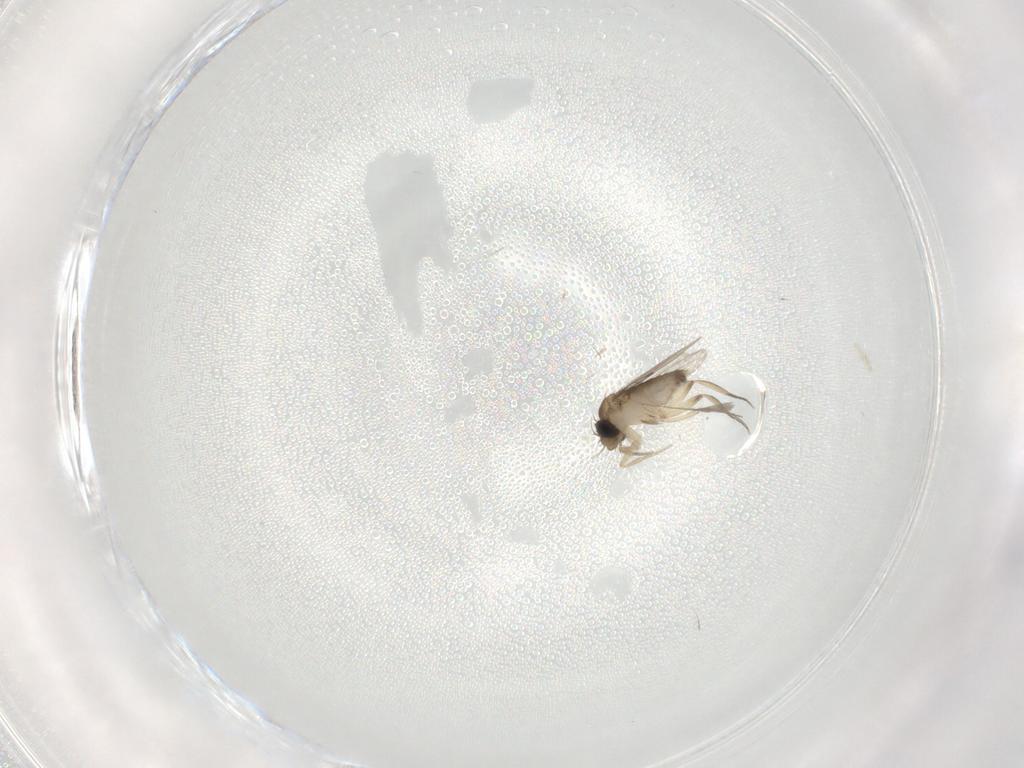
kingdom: Animalia
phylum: Arthropoda
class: Insecta
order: Diptera
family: Phoridae
